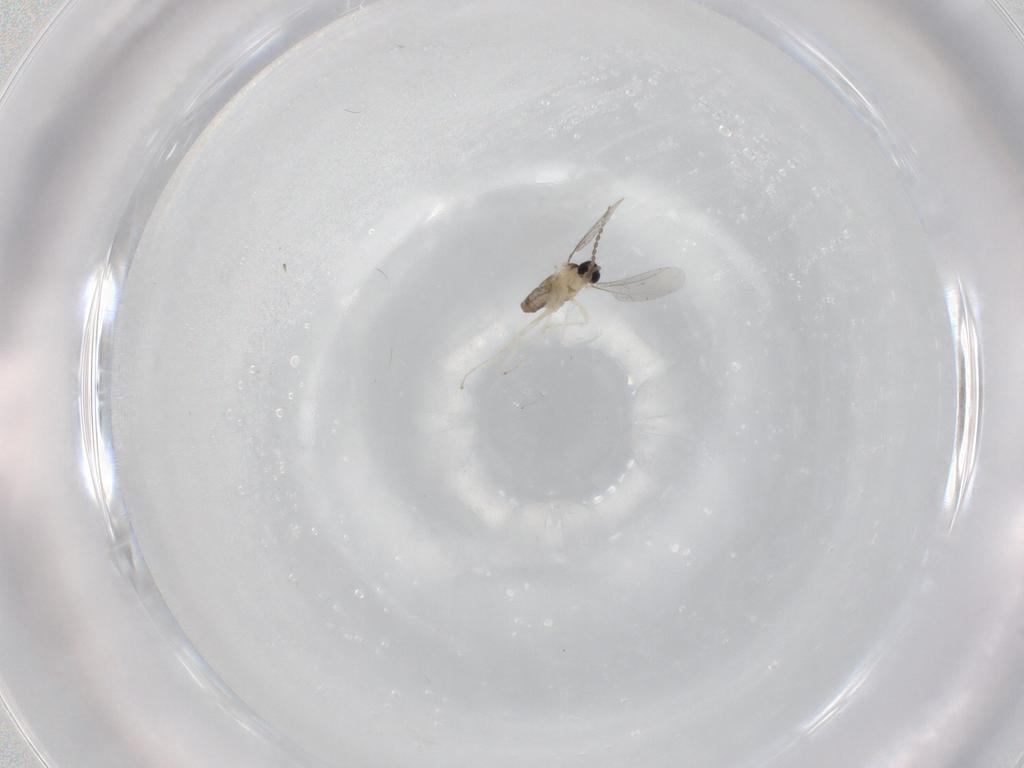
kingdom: Animalia
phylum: Arthropoda
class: Insecta
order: Diptera
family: Cecidomyiidae
